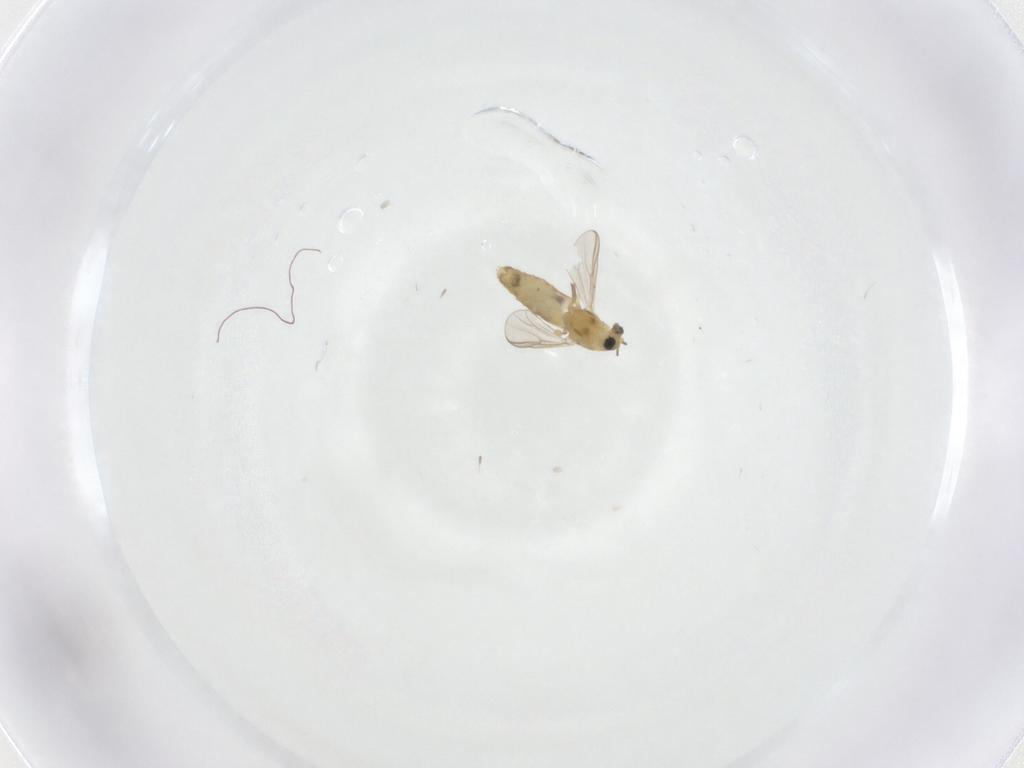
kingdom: Animalia
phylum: Arthropoda
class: Insecta
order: Diptera
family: Chironomidae
